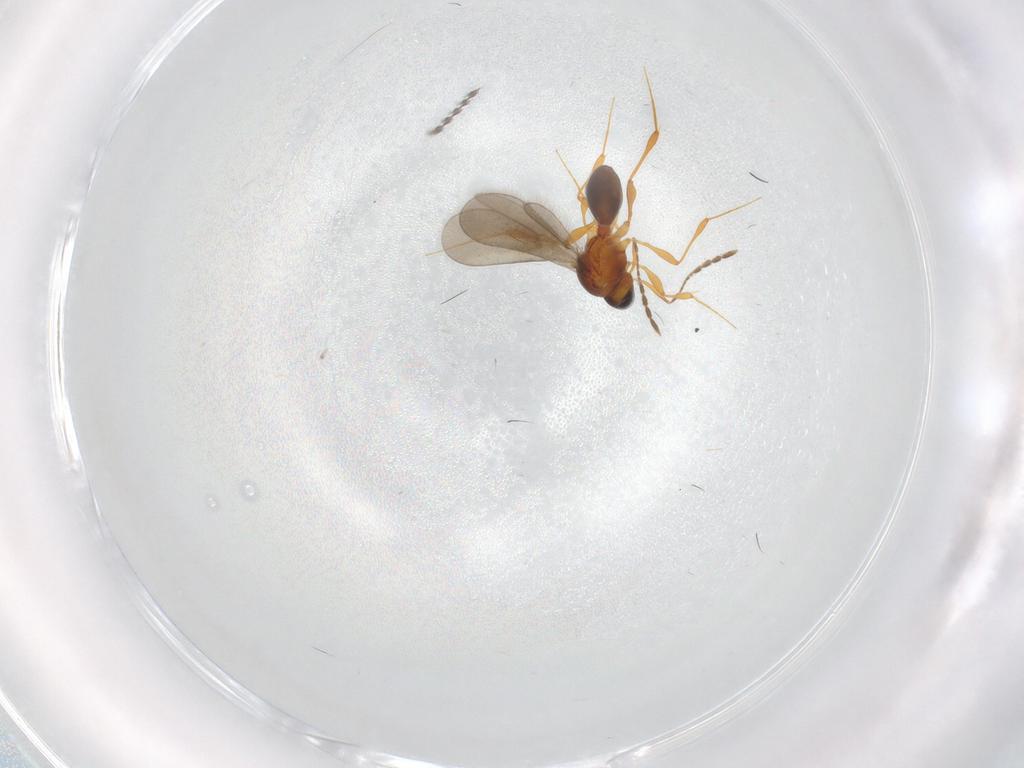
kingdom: Animalia
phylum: Arthropoda
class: Insecta
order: Hymenoptera
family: Platygastridae
